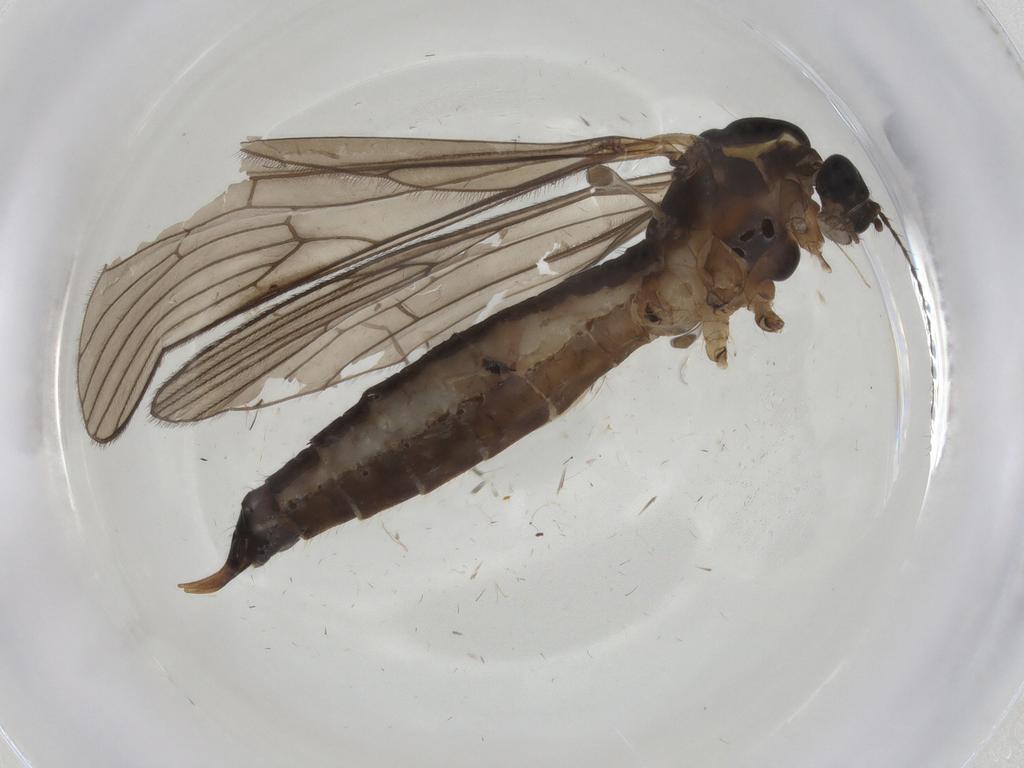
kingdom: Animalia
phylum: Arthropoda
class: Insecta
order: Diptera
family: Limoniidae
